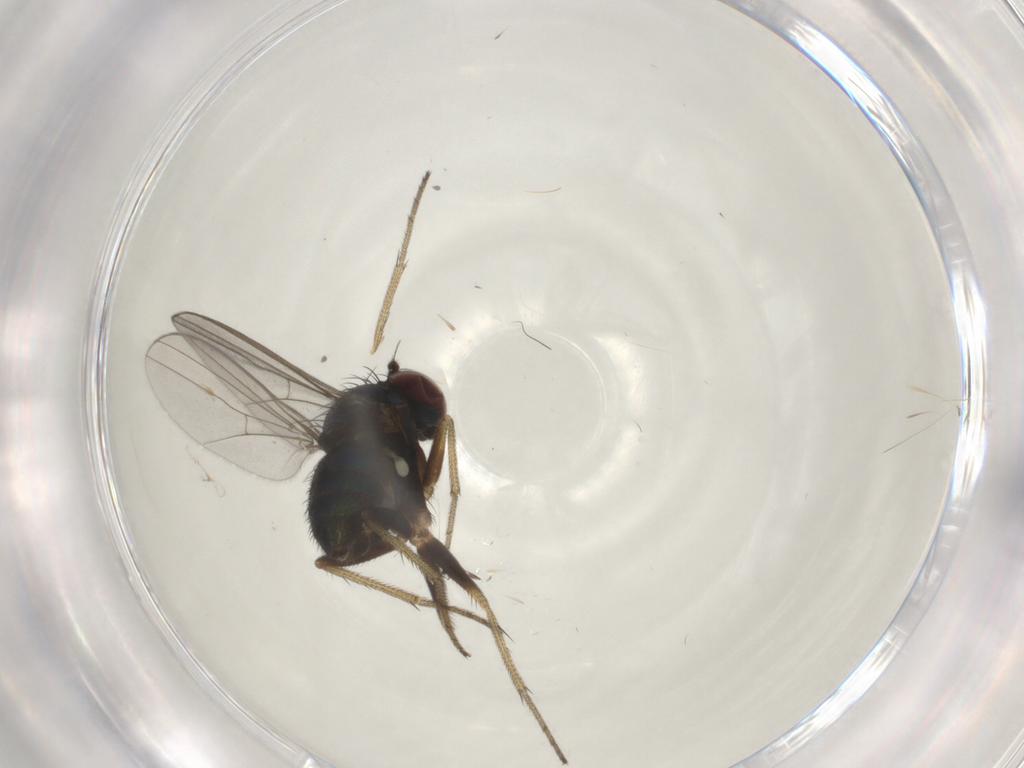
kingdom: Animalia
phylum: Arthropoda
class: Insecta
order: Diptera
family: Dolichopodidae
